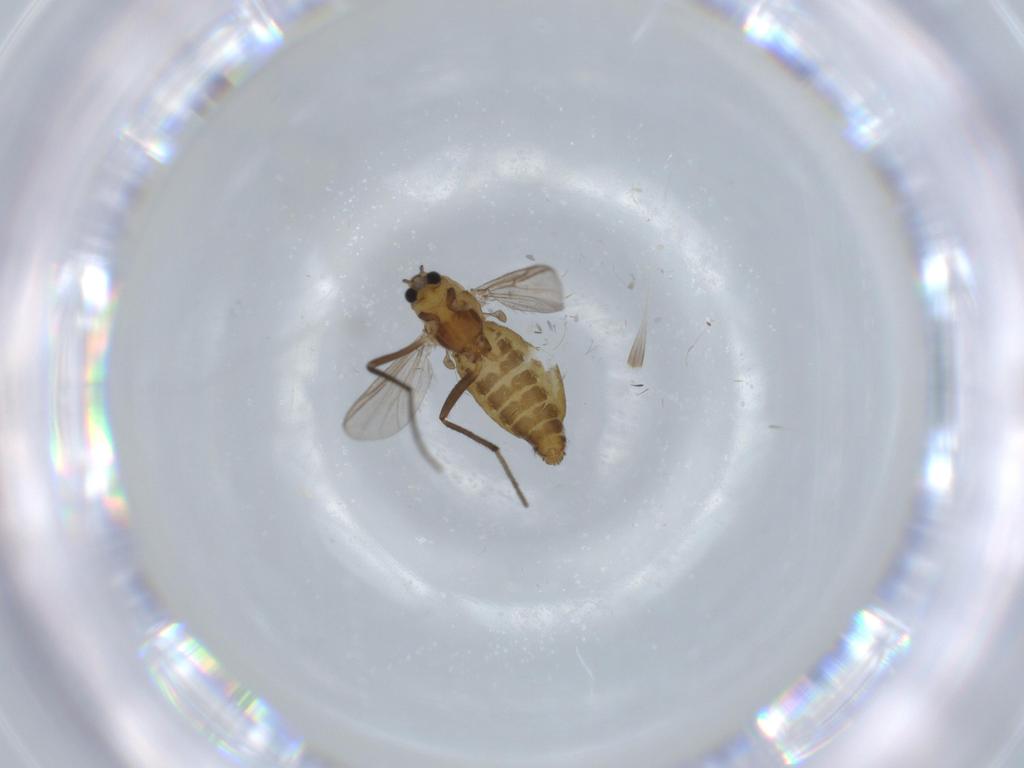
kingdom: Animalia
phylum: Arthropoda
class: Insecta
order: Diptera
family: Chironomidae
